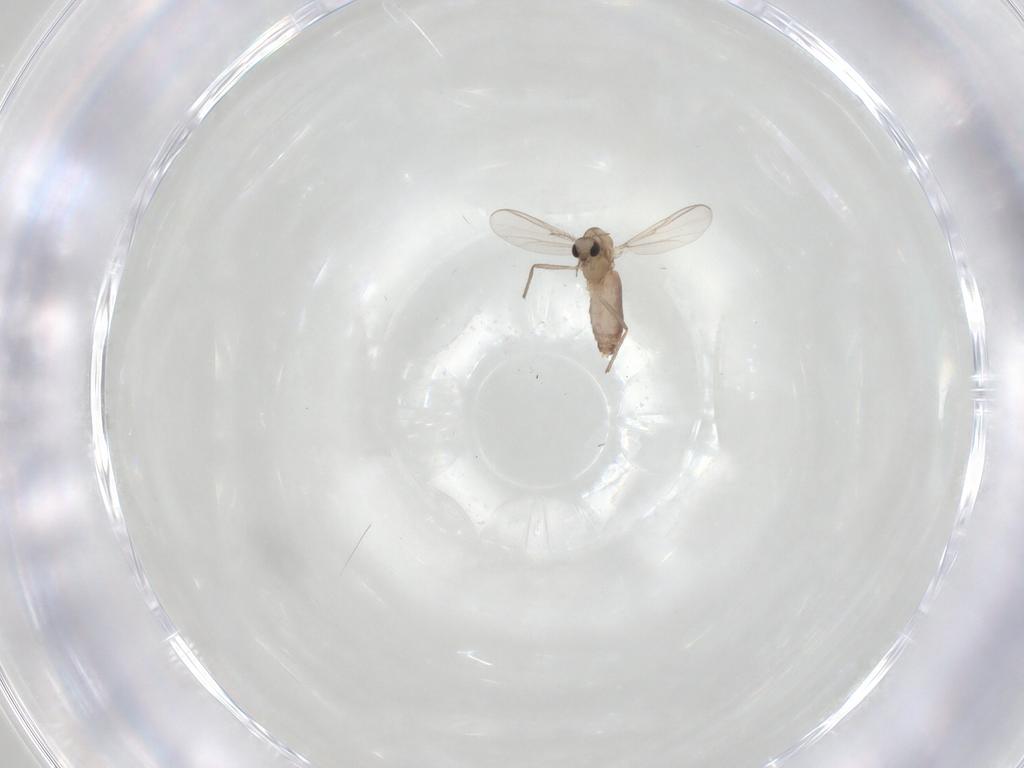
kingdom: Animalia
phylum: Arthropoda
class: Insecta
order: Diptera
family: Chironomidae
